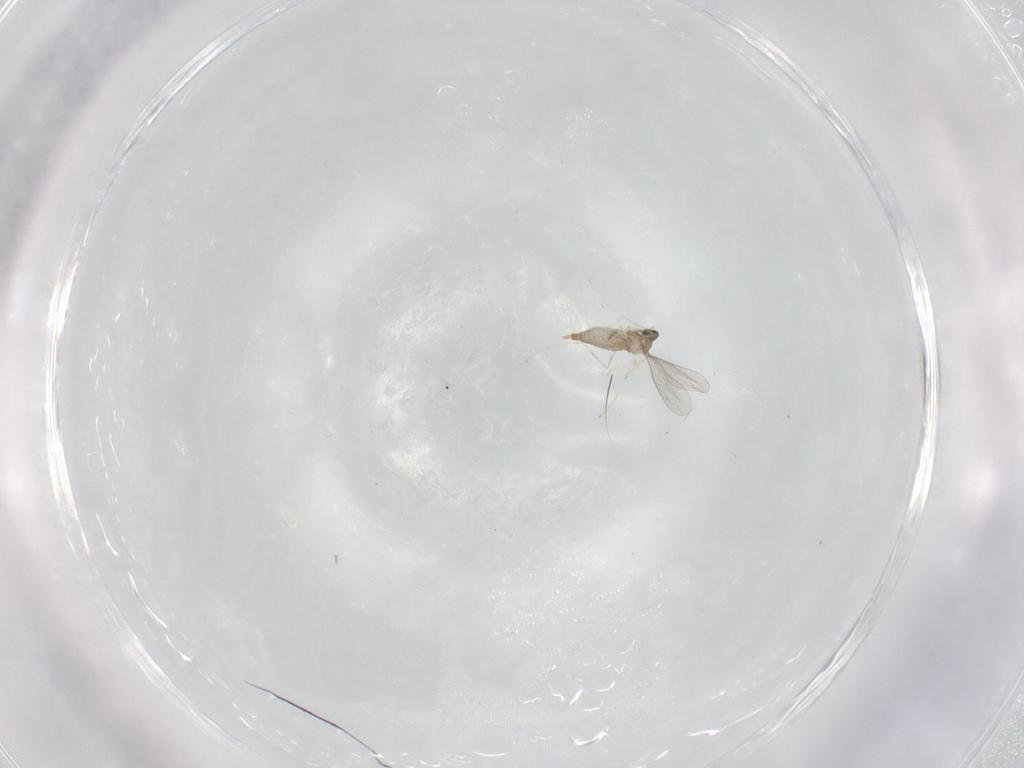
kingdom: Animalia
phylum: Arthropoda
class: Insecta
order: Diptera
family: Cecidomyiidae
